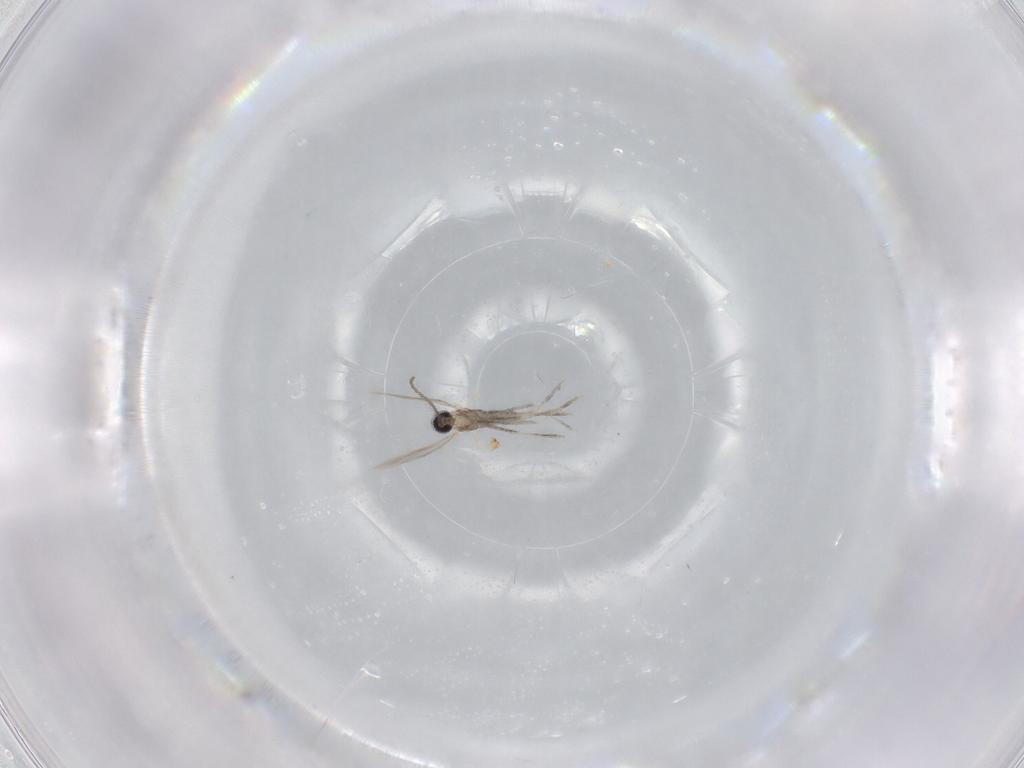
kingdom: Animalia
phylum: Arthropoda
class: Insecta
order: Diptera
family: Cecidomyiidae
